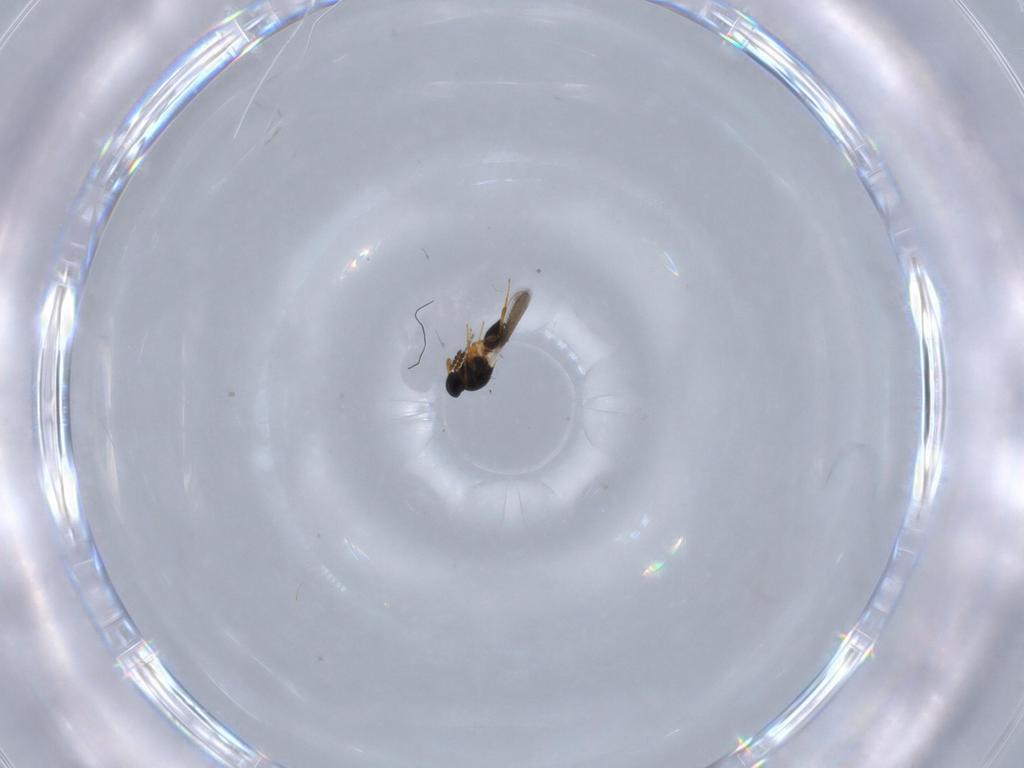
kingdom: Animalia
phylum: Arthropoda
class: Insecta
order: Hymenoptera
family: Platygastridae
